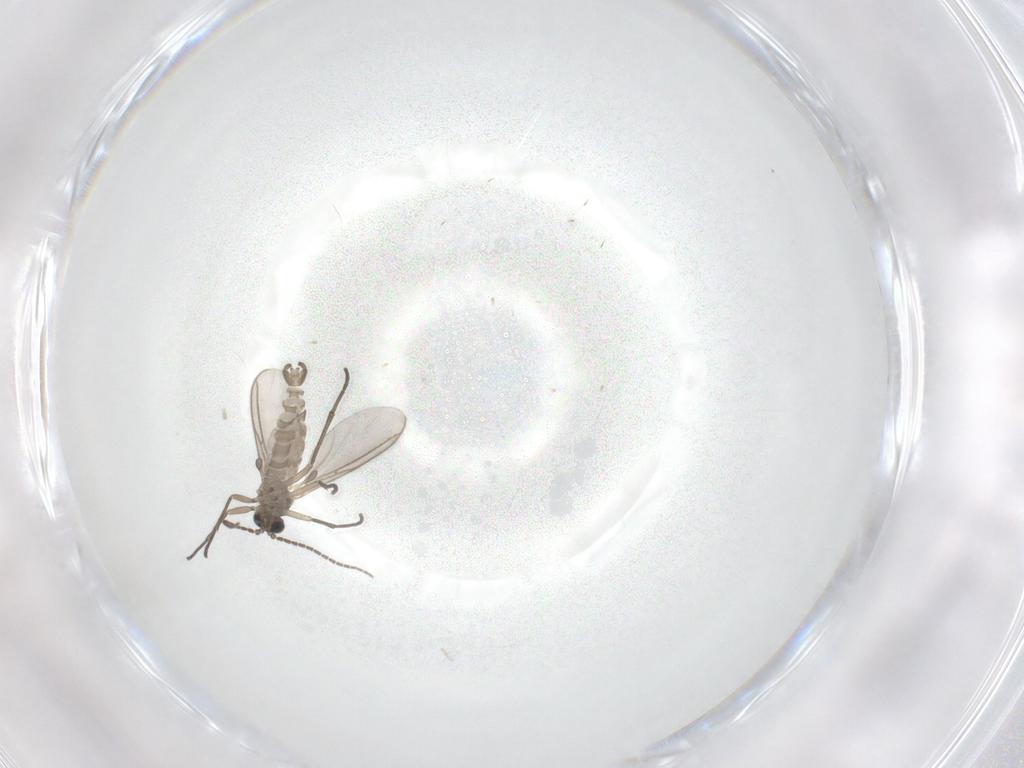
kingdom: Animalia
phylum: Arthropoda
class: Insecta
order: Diptera
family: Sciaridae
